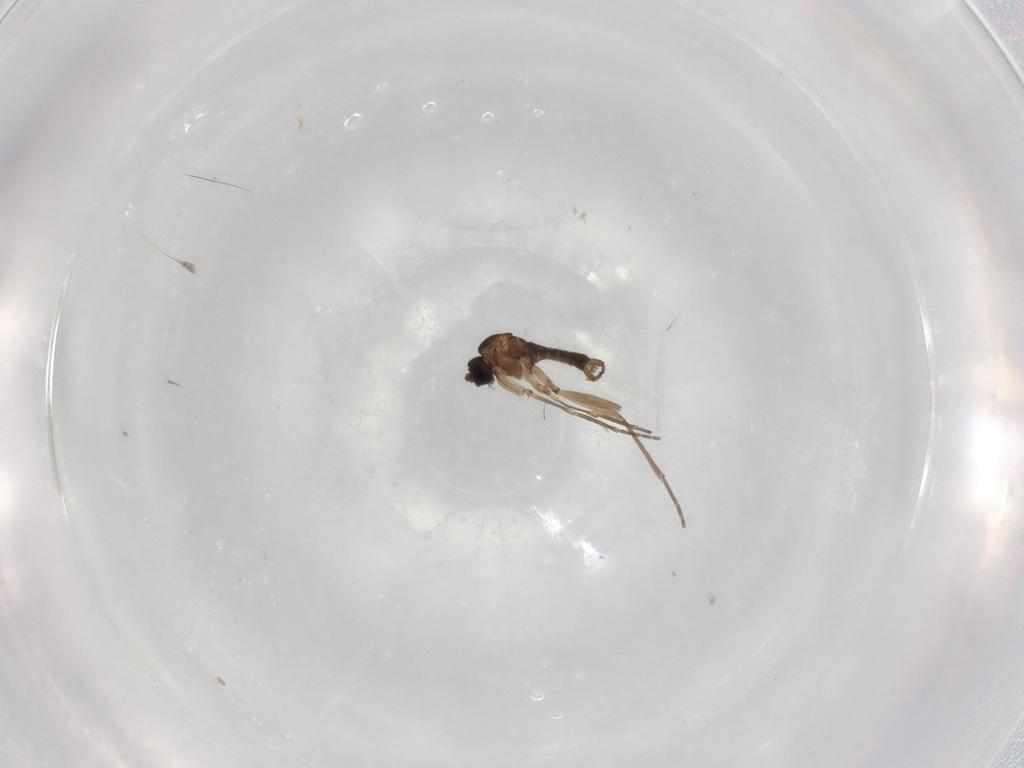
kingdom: Animalia
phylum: Arthropoda
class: Insecta
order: Diptera
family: Sciaridae
